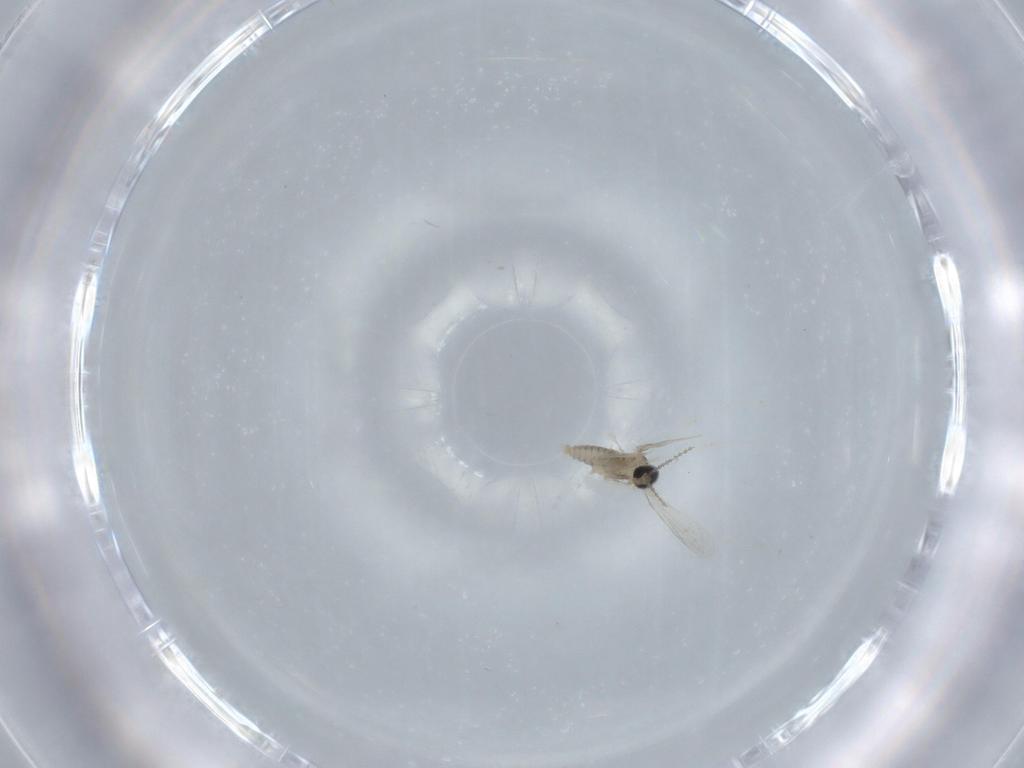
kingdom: Animalia
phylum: Arthropoda
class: Insecta
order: Diptera
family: Cecidomyiidae
